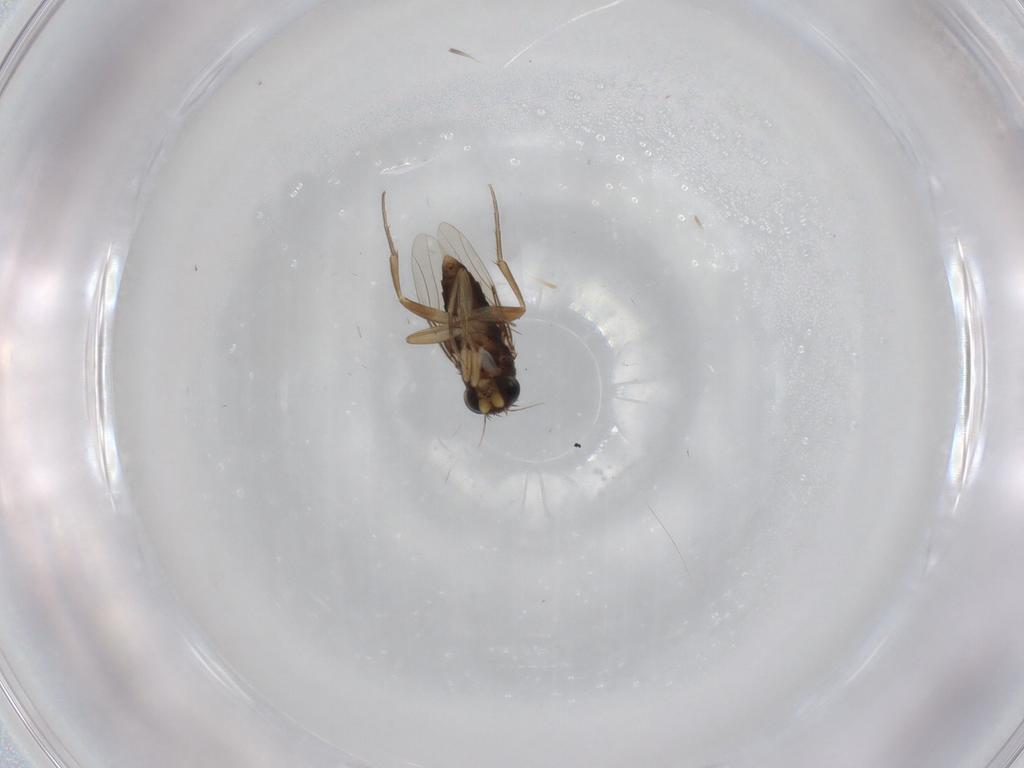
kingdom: Animalia
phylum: Arthropoda
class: Insecta
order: Diptera
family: Phoridae
